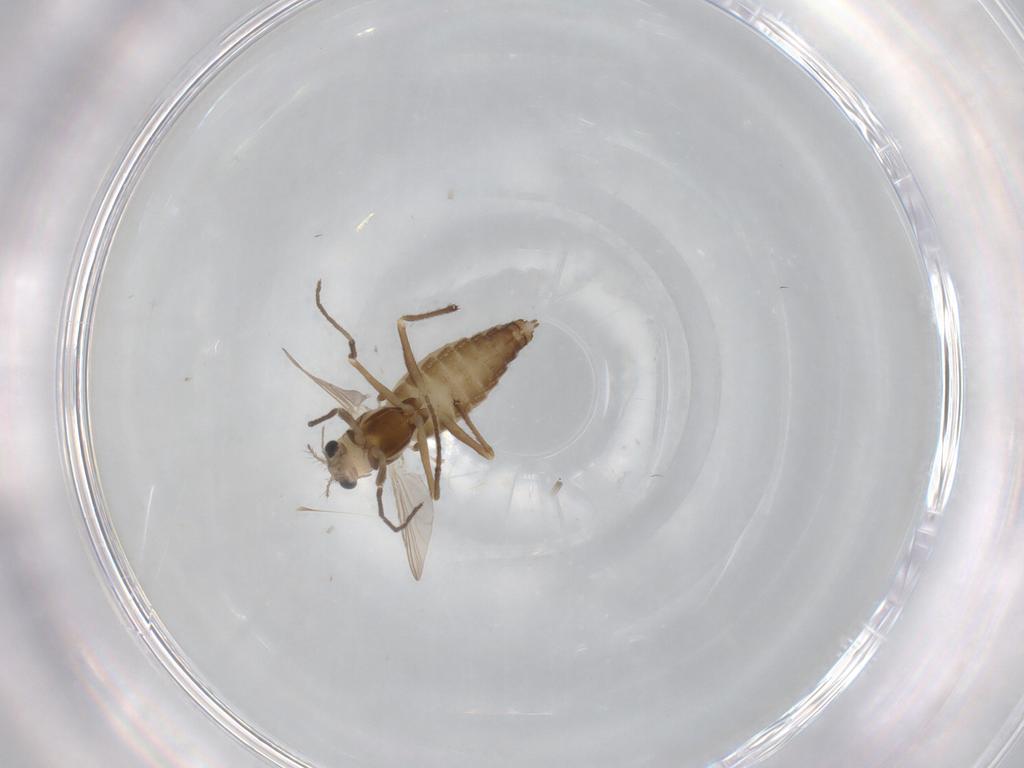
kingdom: Animalia
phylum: Arthropoda
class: Insecta
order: Diptera
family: Chironomidae
